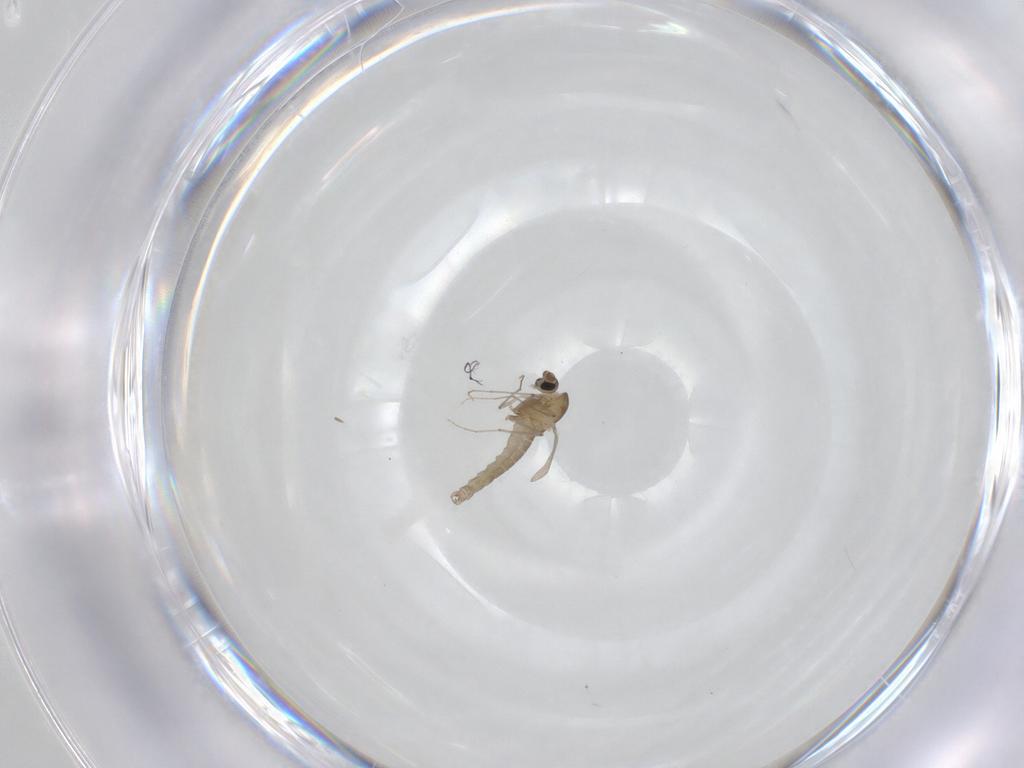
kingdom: Animalia
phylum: Arthropoda
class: Insecta
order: Diptera
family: Chironomidae
